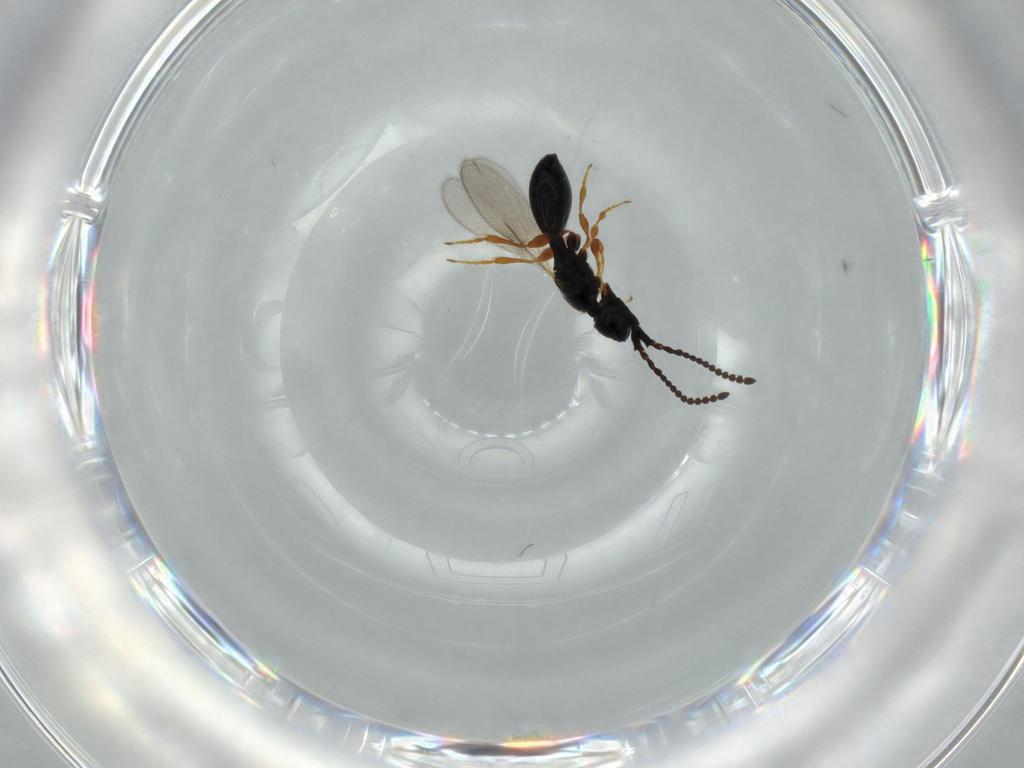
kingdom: Animalia
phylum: Arthropoda
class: Insecta
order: Hymenoptera
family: Diapriidae
